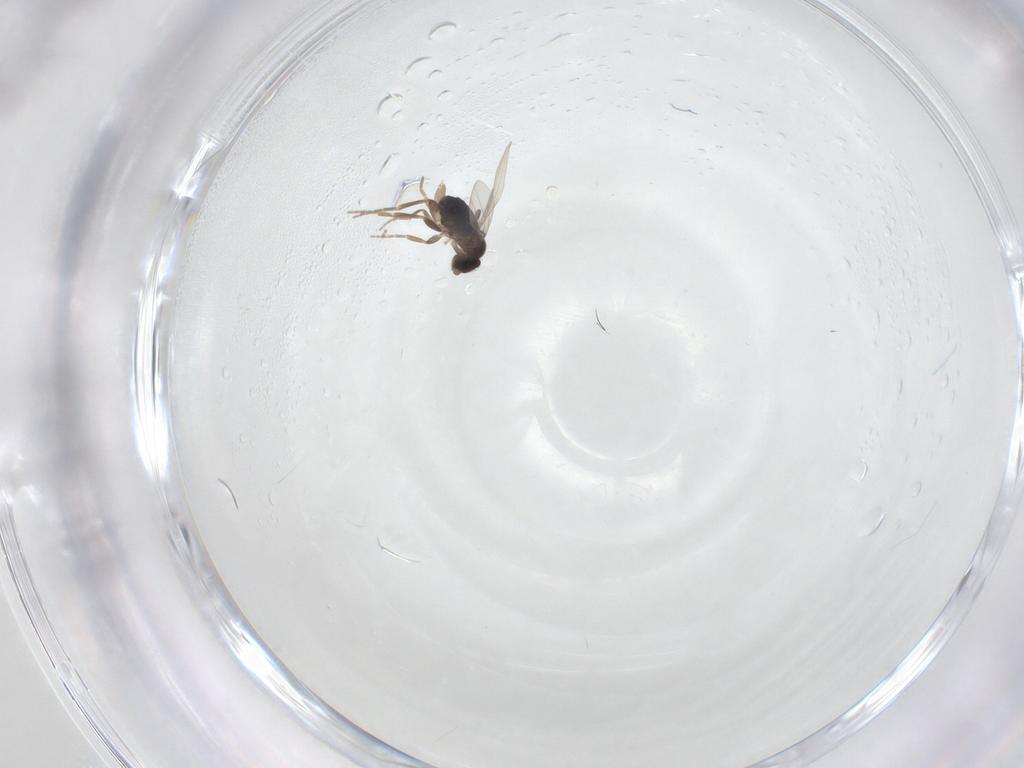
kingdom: Animalia
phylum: Arthropoda
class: Insecta
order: Diptera
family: Phoridae
